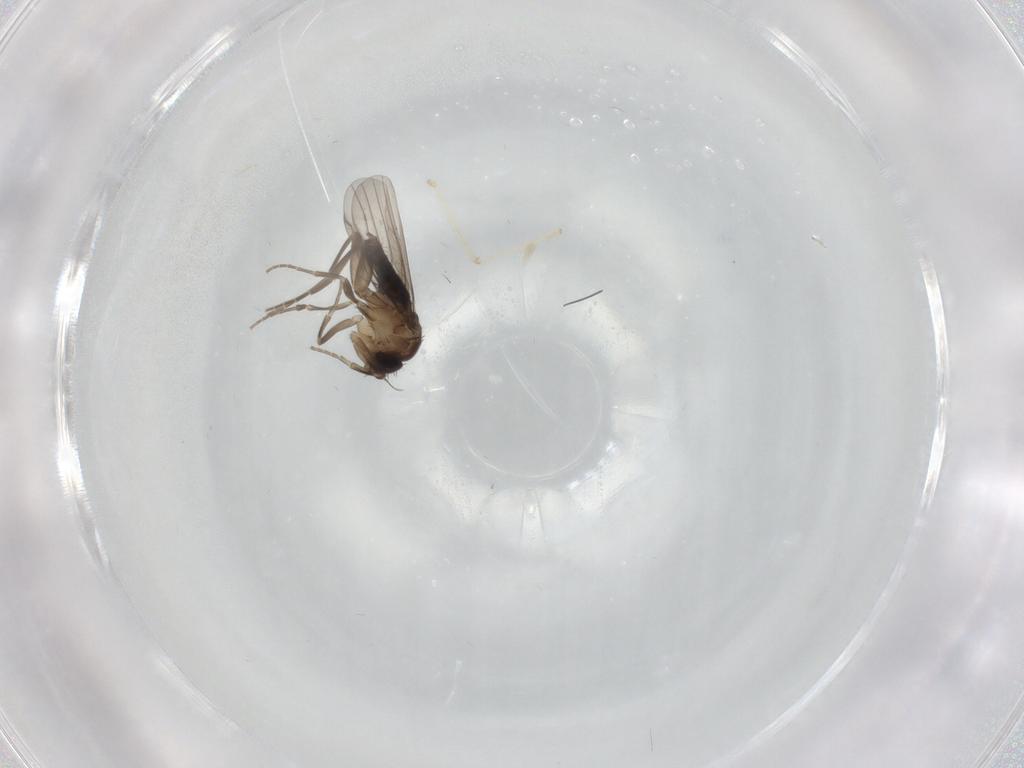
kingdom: Animalia
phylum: Arthropoda
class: Insecta
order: Diptera
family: Cecidomyiidae
